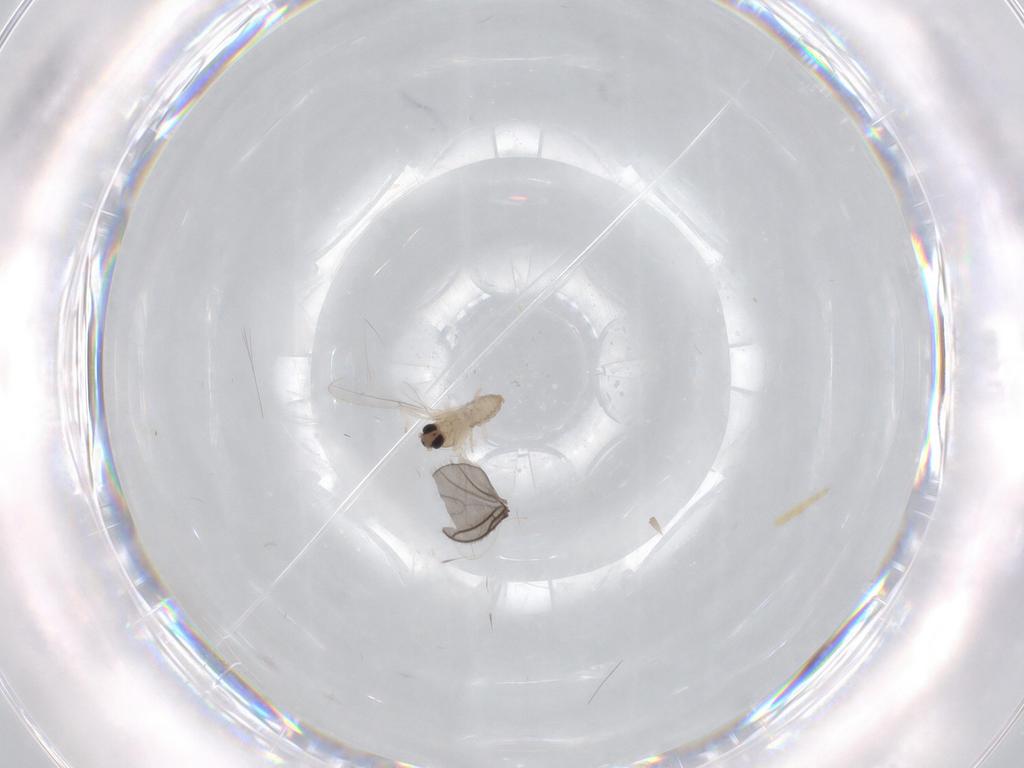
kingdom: Animalia
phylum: Arthropoda
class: Insecta
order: Diptera
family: Cecidomyiidae
